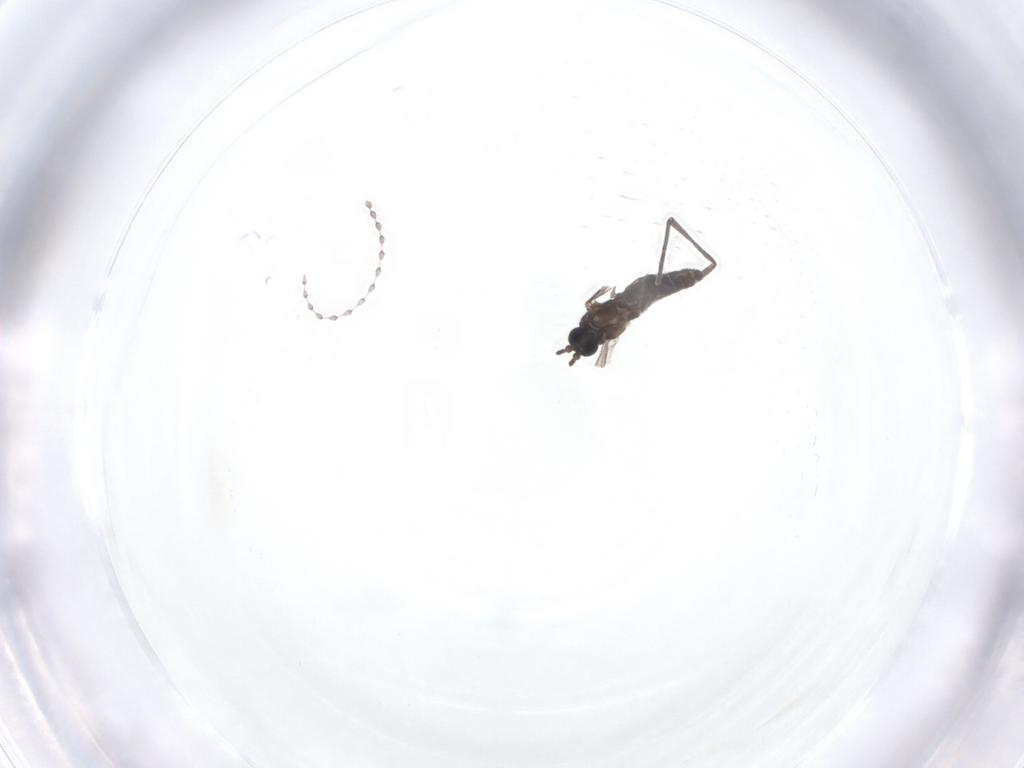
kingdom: Animalia
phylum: Arthropoda
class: Insecta
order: Diptera
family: Sciaridae
